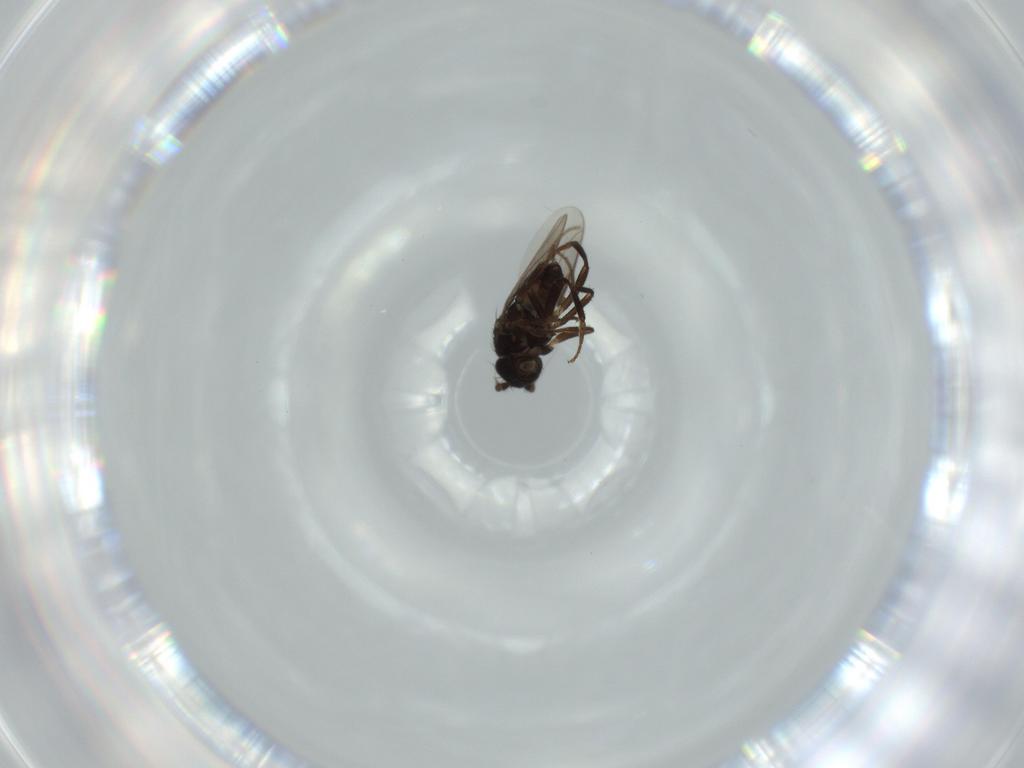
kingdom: Animalia
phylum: Arthropoda
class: Insecta
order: Diptera
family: Sphaeroceridae
